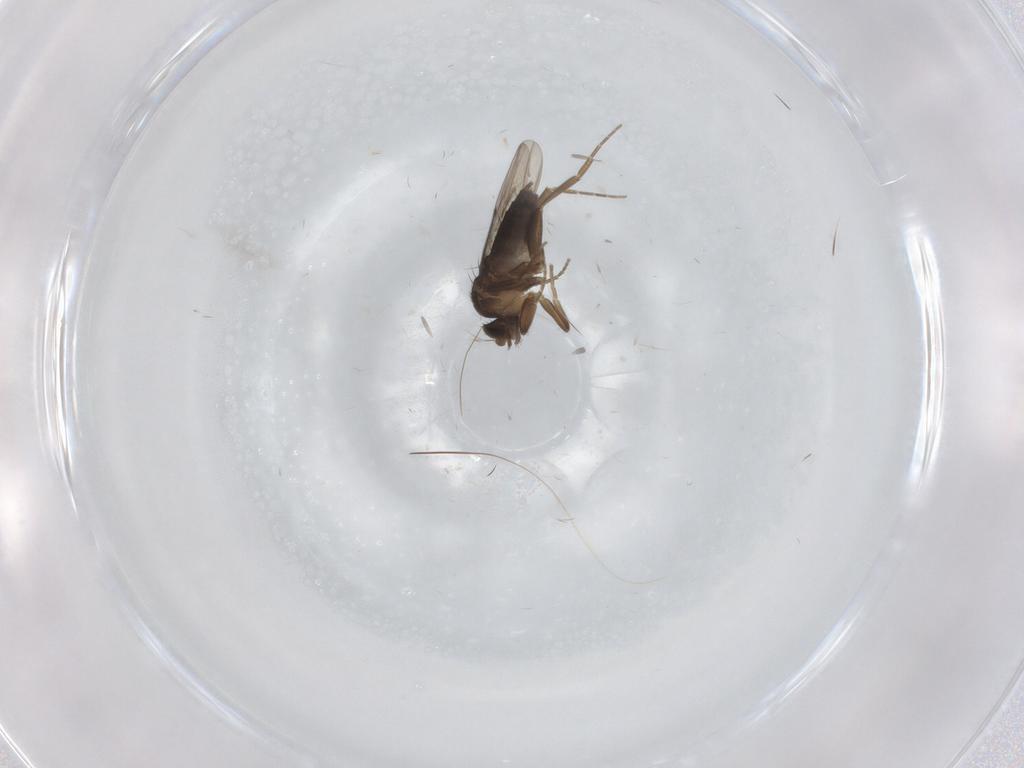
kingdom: Animalia
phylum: Arthropoda
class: Insecta
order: Diptera
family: Cecidomyiidae
